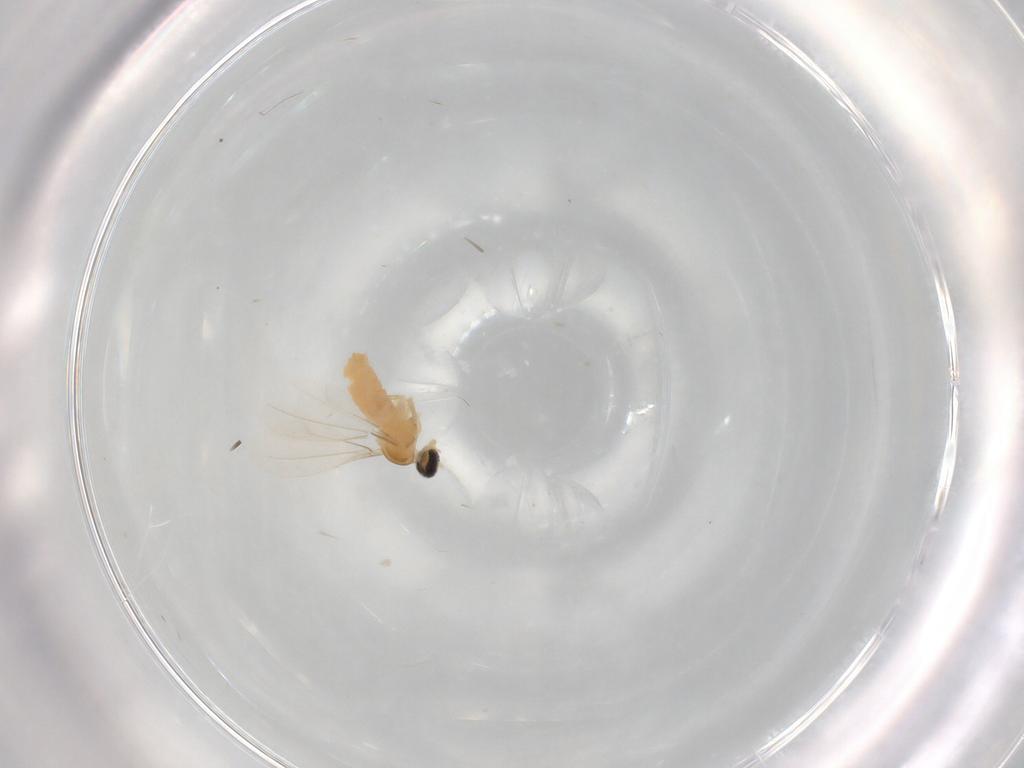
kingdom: Animalia
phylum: Arthropoda
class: Insecta
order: Diptera
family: Cecidomyiidae
